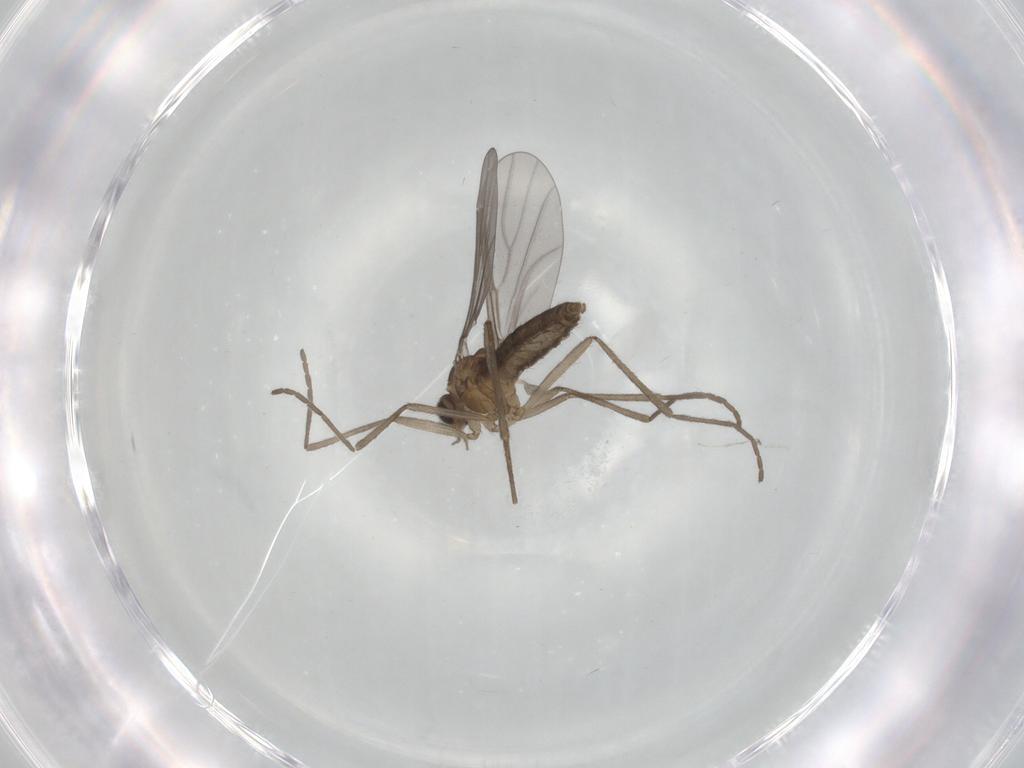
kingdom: Animalia
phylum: Arthropoda
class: Insecta
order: Diptera
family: Cecidomyiidae
